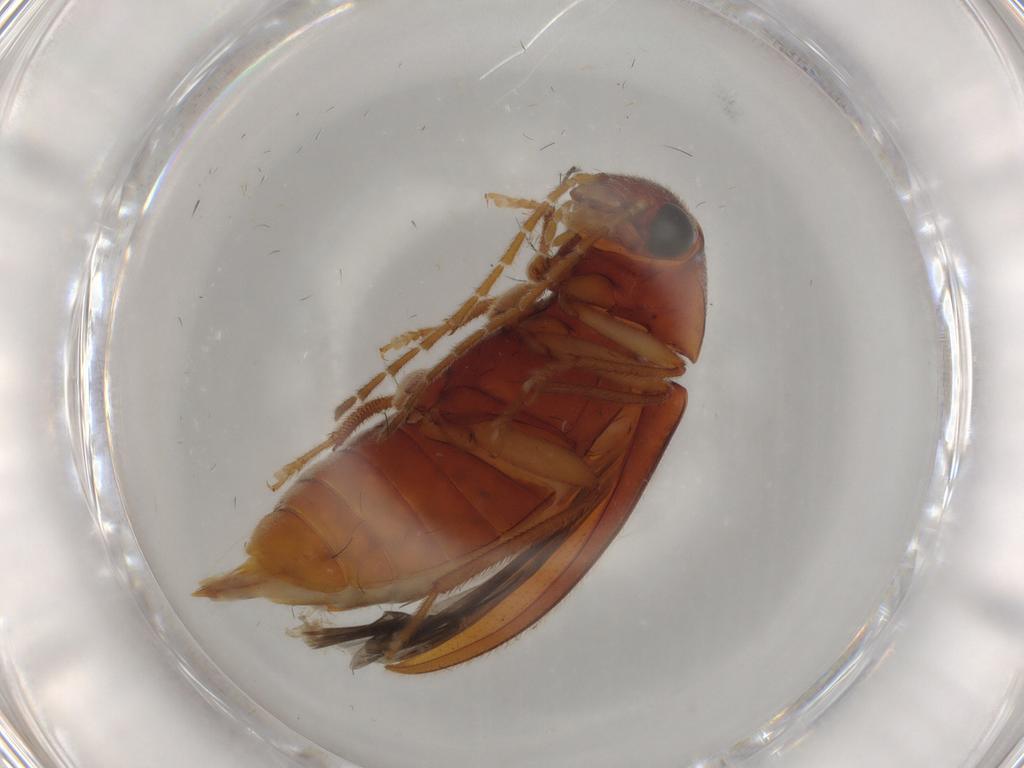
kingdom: Animalia
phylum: Arthropoda
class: Insecta
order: Coleoptera
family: Ptilodactylidae
